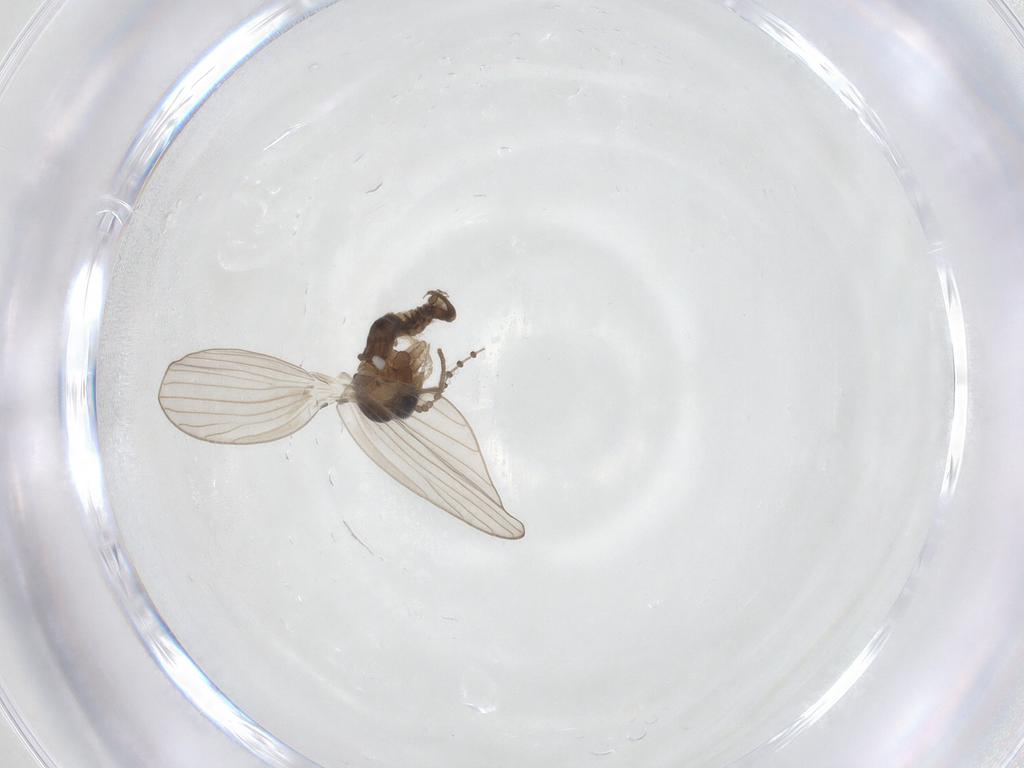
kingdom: Animalia
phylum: Arthropoda
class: Insecta
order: Diptera
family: Psychodidae
